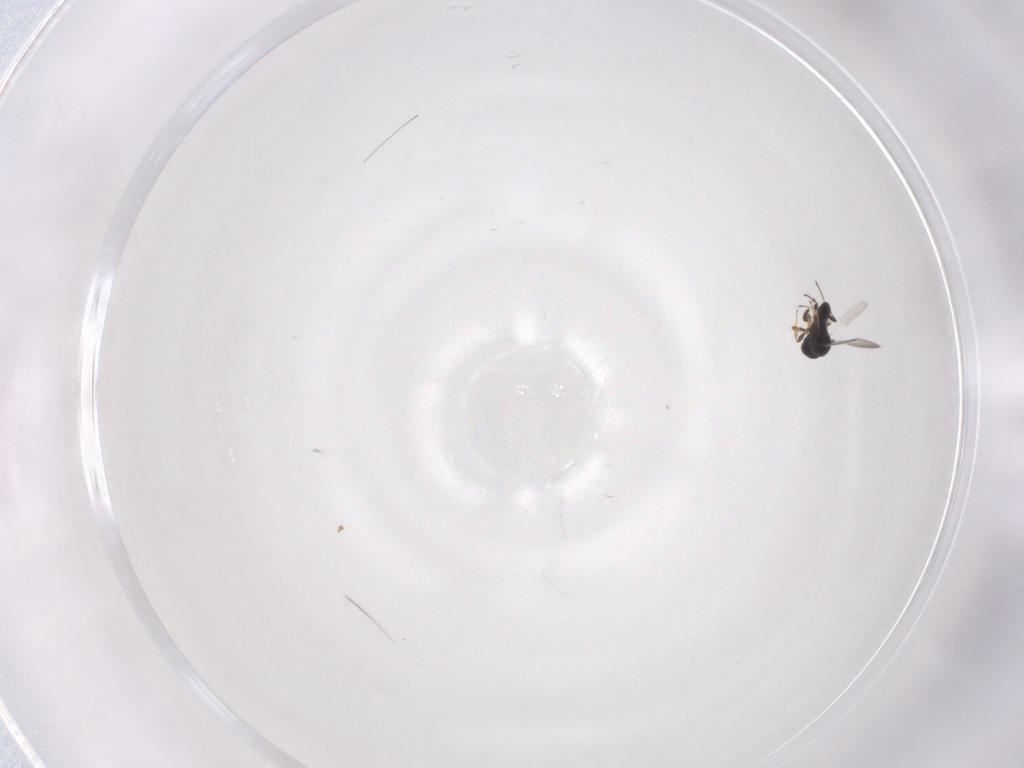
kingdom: Animalia
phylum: Arthropoda
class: Insecta
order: Hymenoptera
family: Platygastridae
